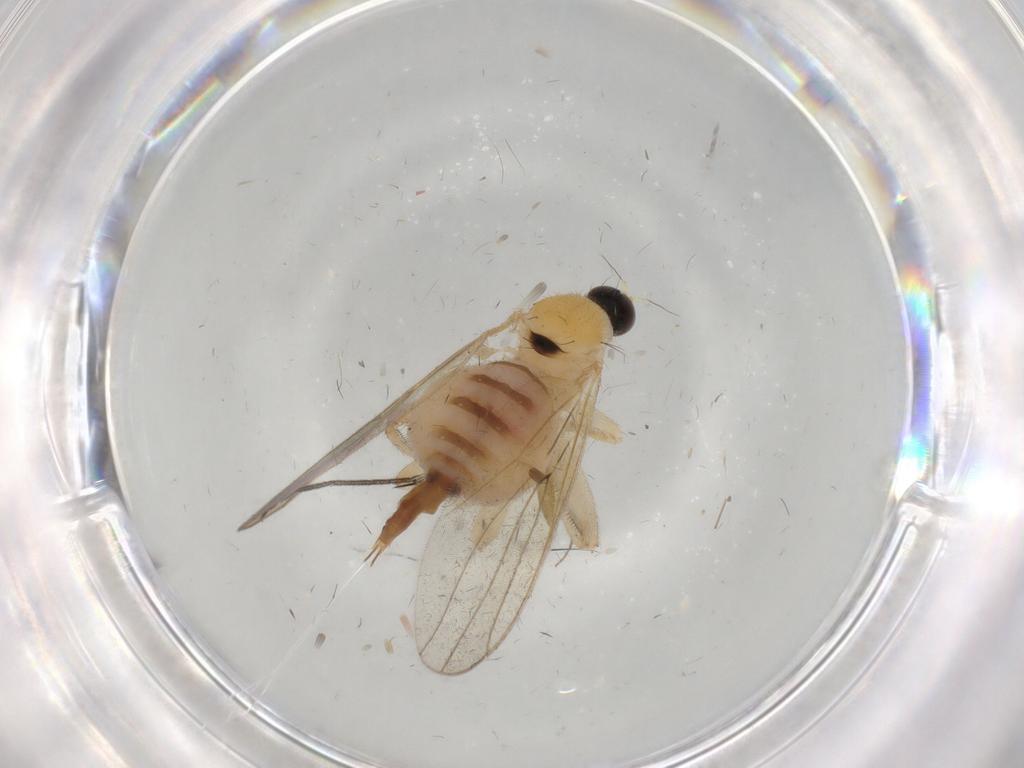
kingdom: Animalia
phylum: Arthropoda
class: Insecta
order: Diptera
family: Hybotidae
